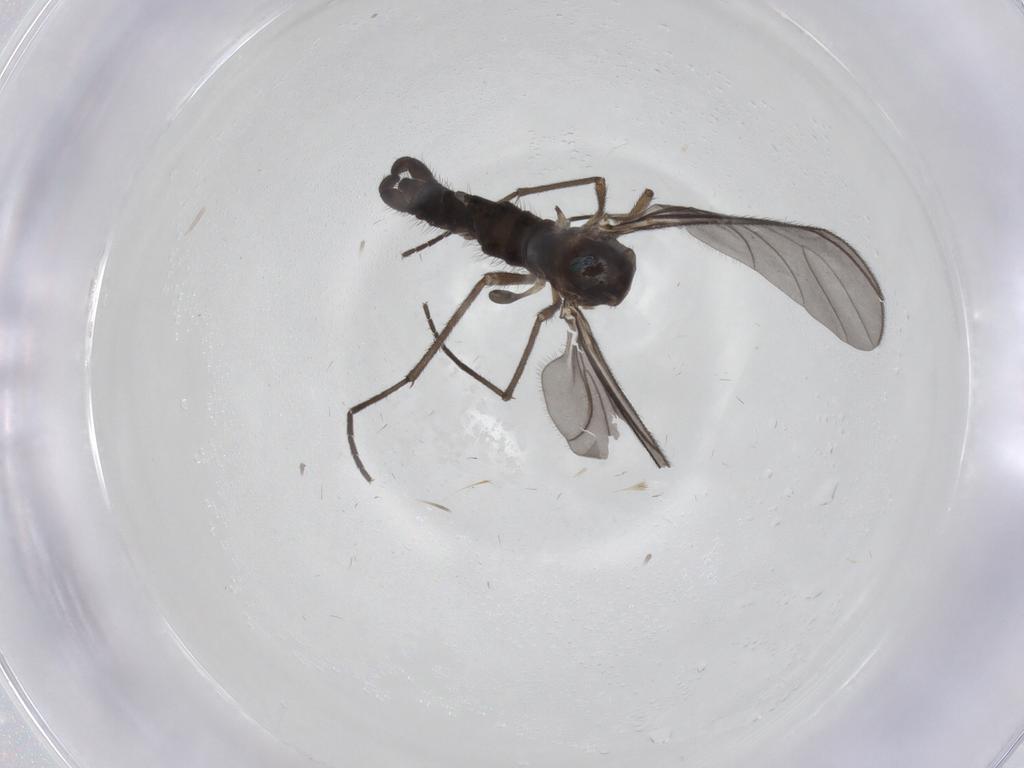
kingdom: Animalia
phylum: Arthropoda
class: Insecta
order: Diptera
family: Sciaridae
